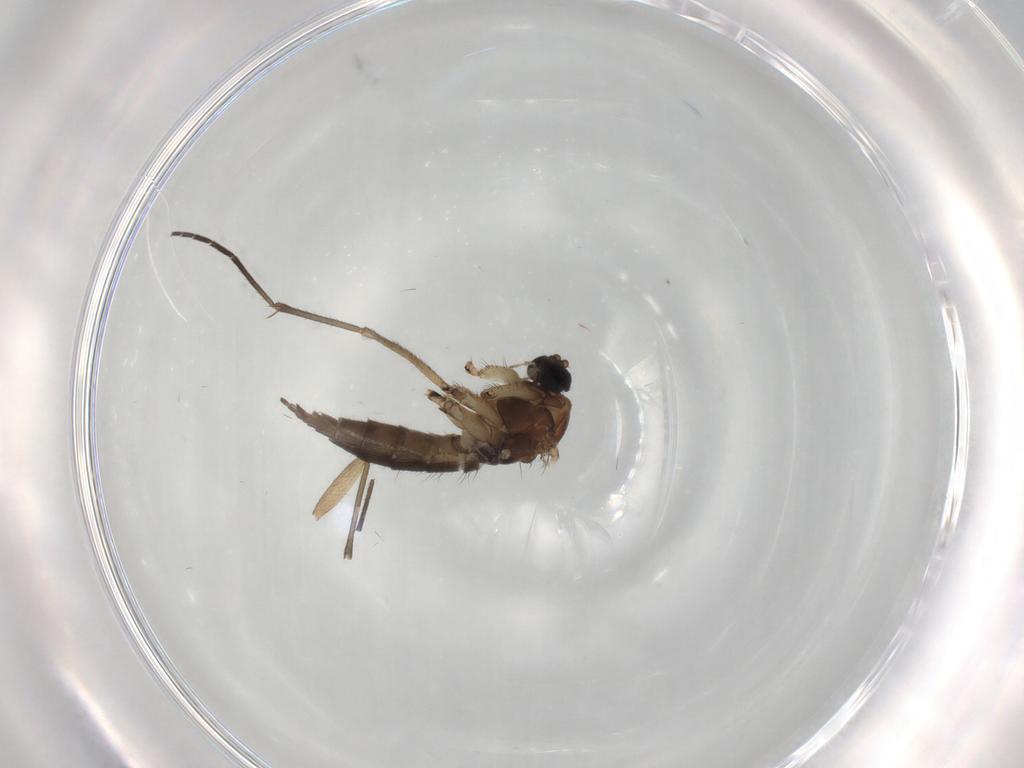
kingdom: Animalia
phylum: Arthropoda
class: Insecta
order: Diptera
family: Sciaridae
